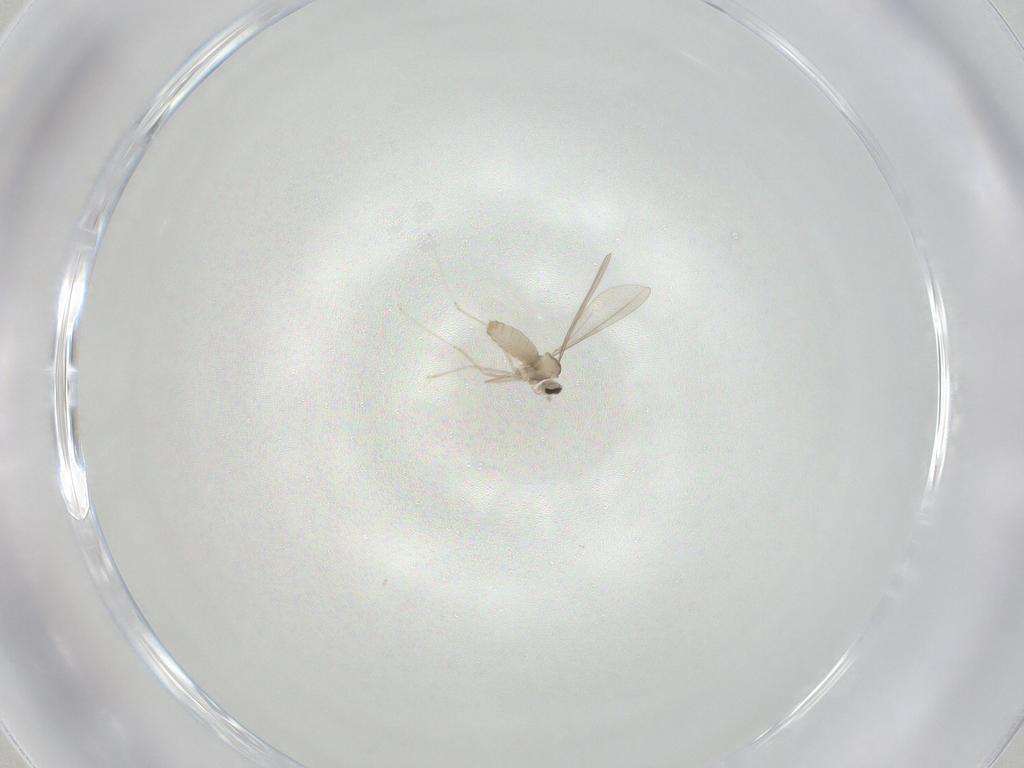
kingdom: Animalia
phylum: Arthropoda
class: Insecta
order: Diptera
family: Cecidomyiidae
